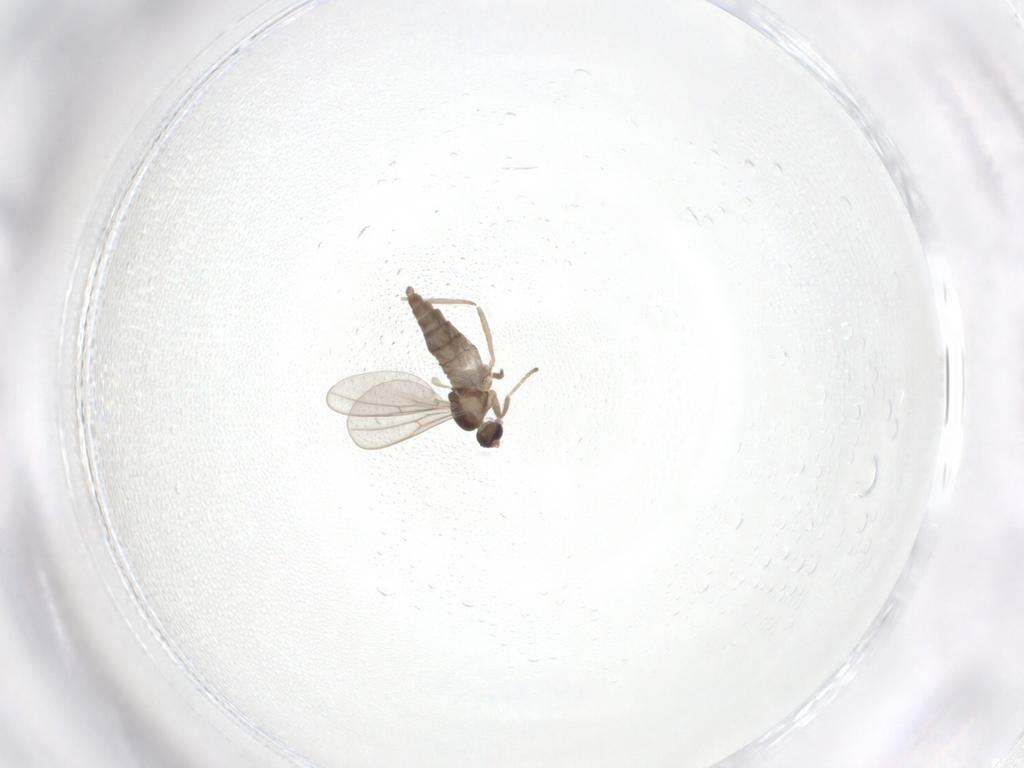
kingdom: Animalia
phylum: Arthropoda
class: Insecta
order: Diptera
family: Cecidomyiidae
